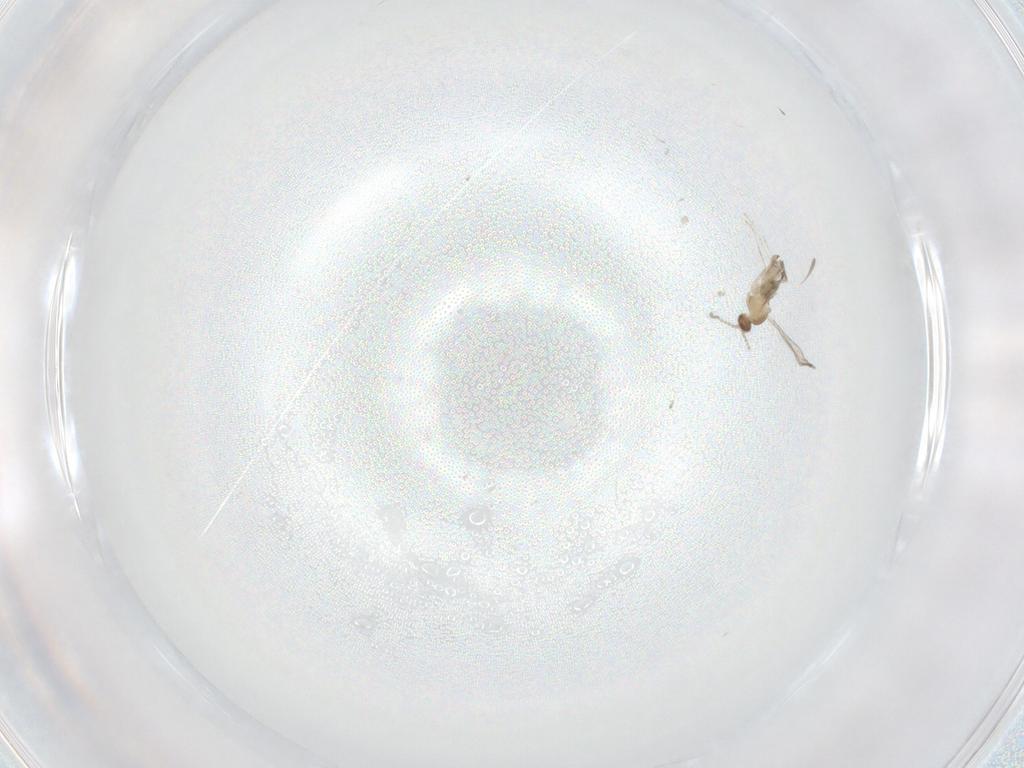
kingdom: Animalia
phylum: Arthropoda
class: Insecta
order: Diptera
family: Cecidomyiidae
